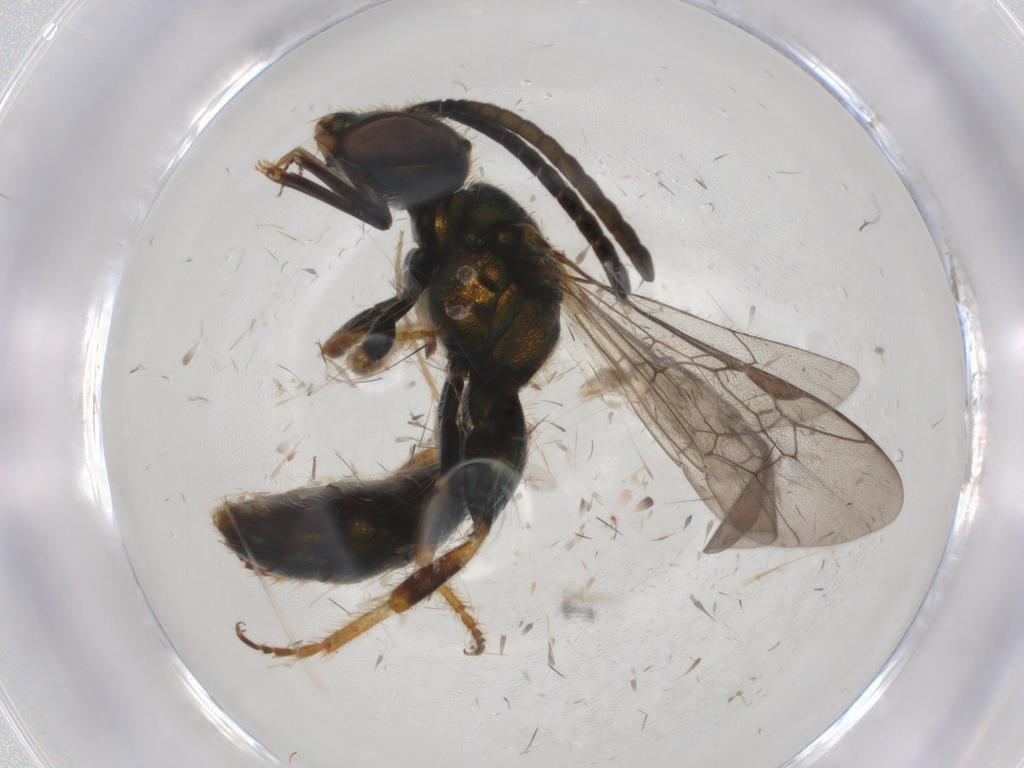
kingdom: Animalia
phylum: Arthropoda
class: Insecta
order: Hymenoptera
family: Halictidae
